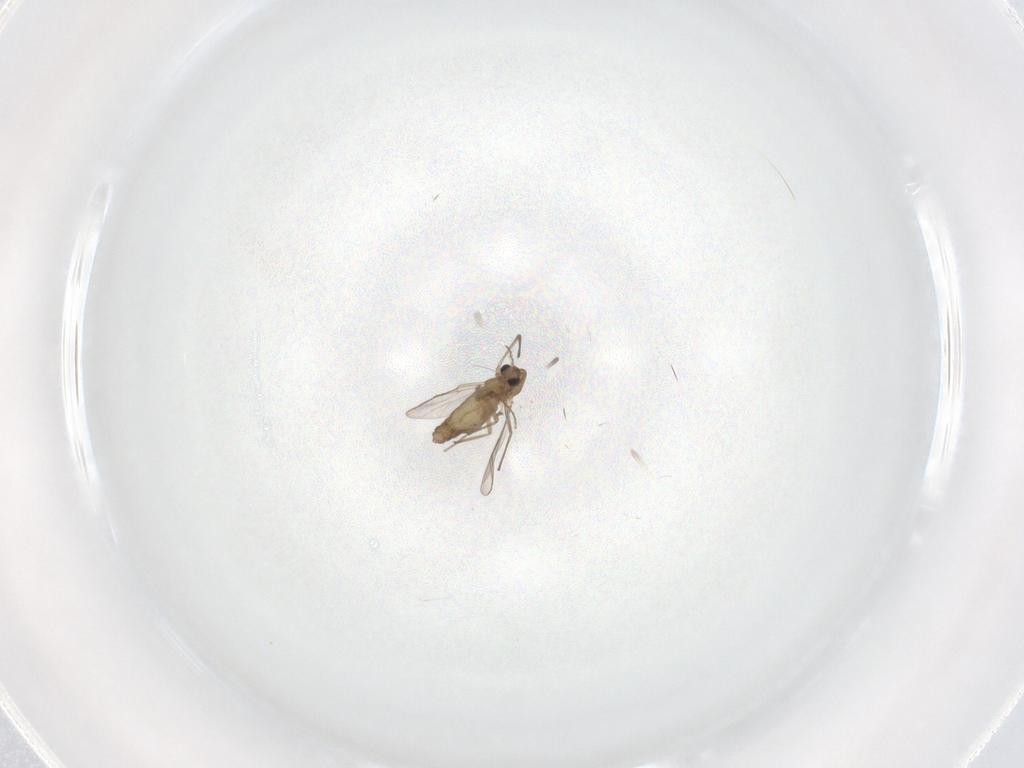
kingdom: Animalia
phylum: Arthropoda
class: Insecta
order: Diptera
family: Chironomidae
